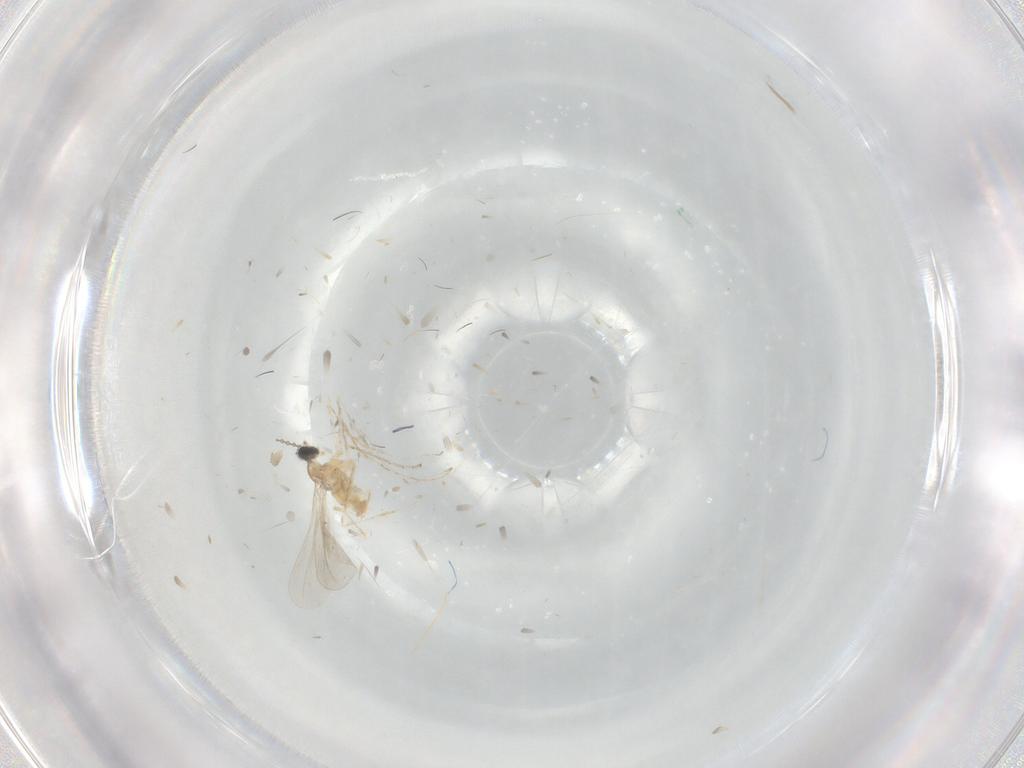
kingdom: Animalia
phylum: Arthropoda
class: Insecta
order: Diptera
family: Cecidomyiidae
